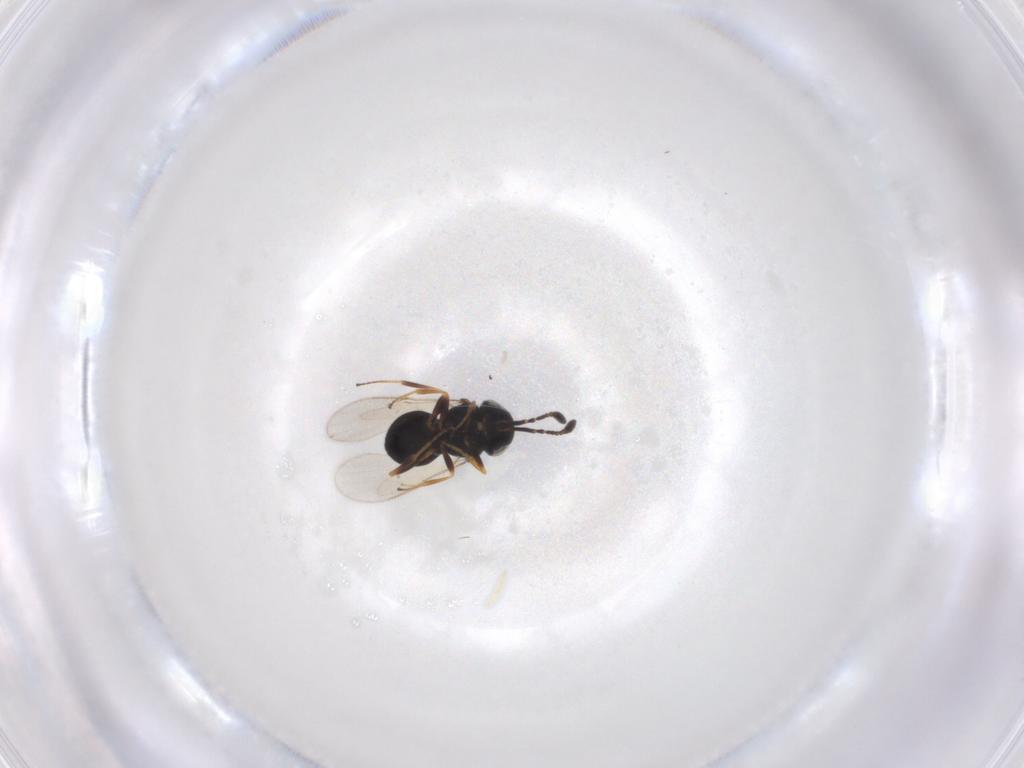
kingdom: Animalia
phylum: Arthropoda
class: Insecta
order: Hymenoptera
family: Scelionidae
